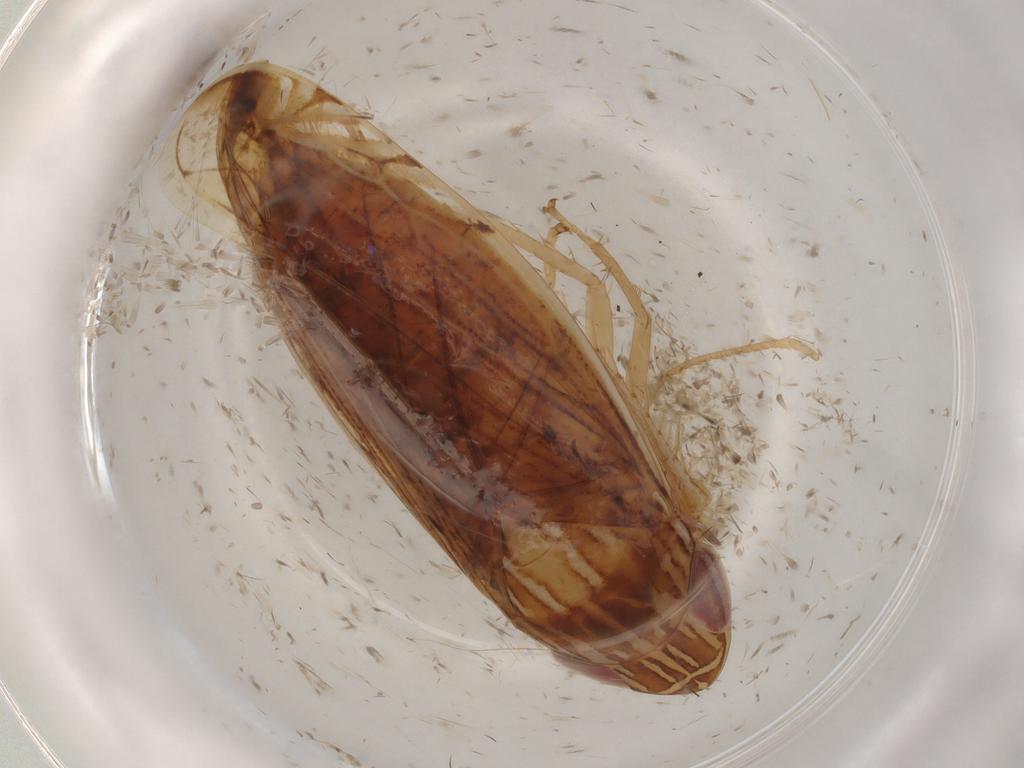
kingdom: Animalia
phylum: Arthropoda
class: Insecta
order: Hemiptera
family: Cicadellidae
